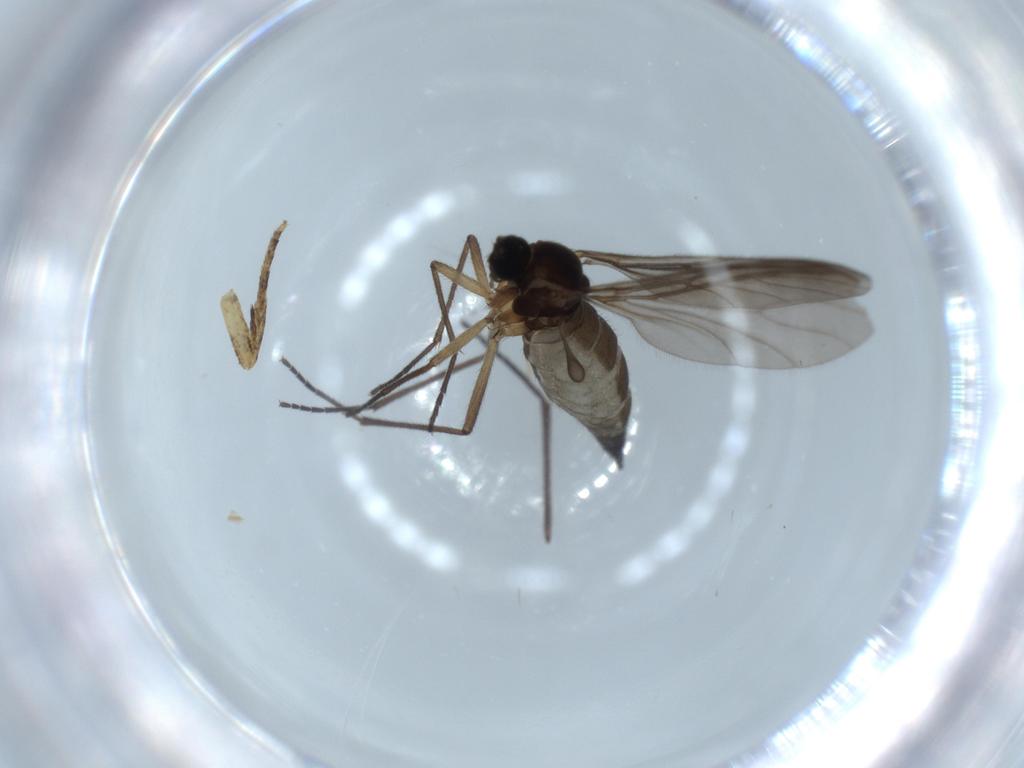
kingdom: Animalia
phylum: Arthropoda
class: Insecta
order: Diptera
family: Sciaridae
